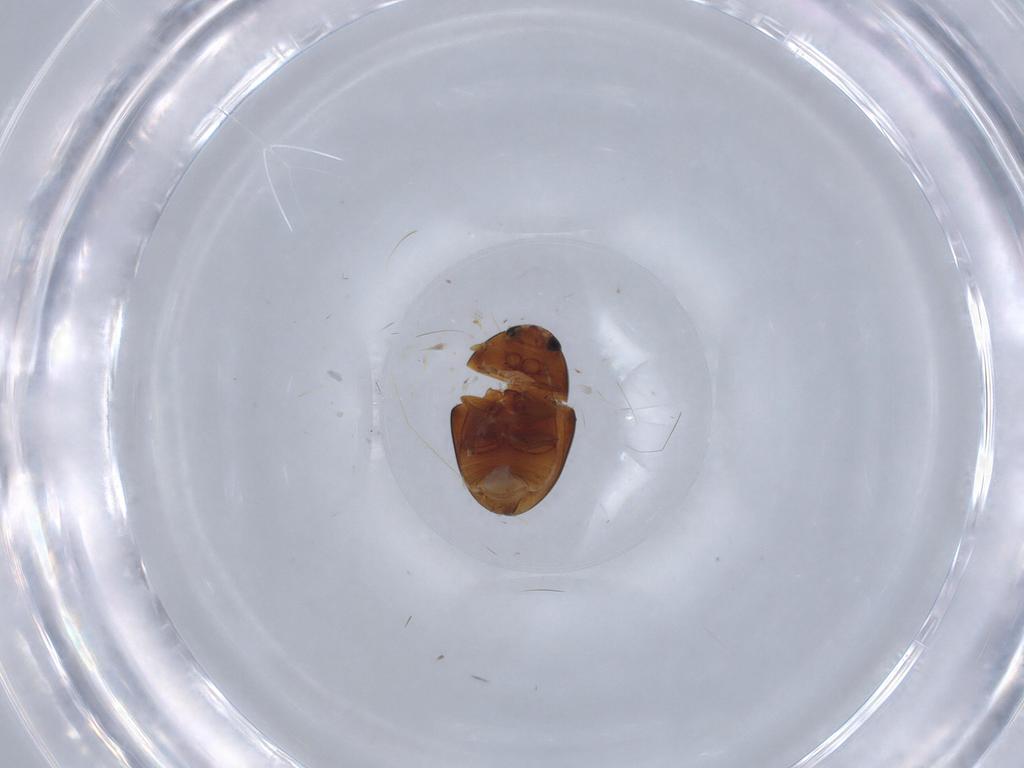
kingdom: Animalia
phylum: Arthropoda
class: Insecta
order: Coleoptera
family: Phalacridae
